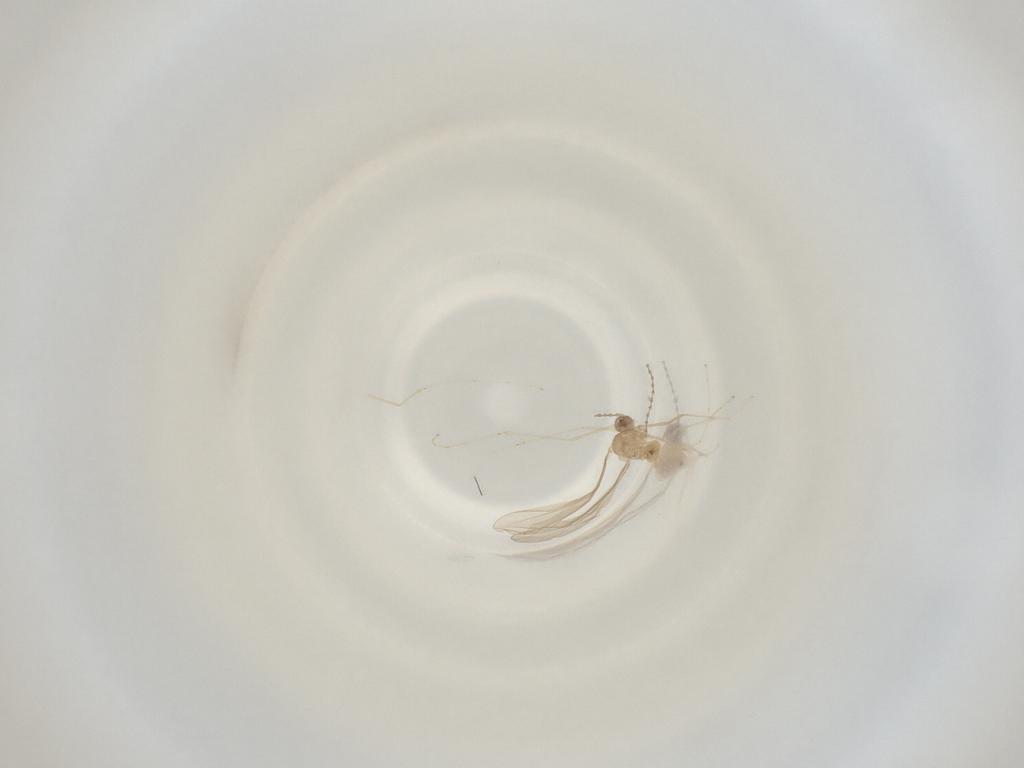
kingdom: Animalia
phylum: Arthropoda
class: Insecta
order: Diptera
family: Cecidomyiidae
